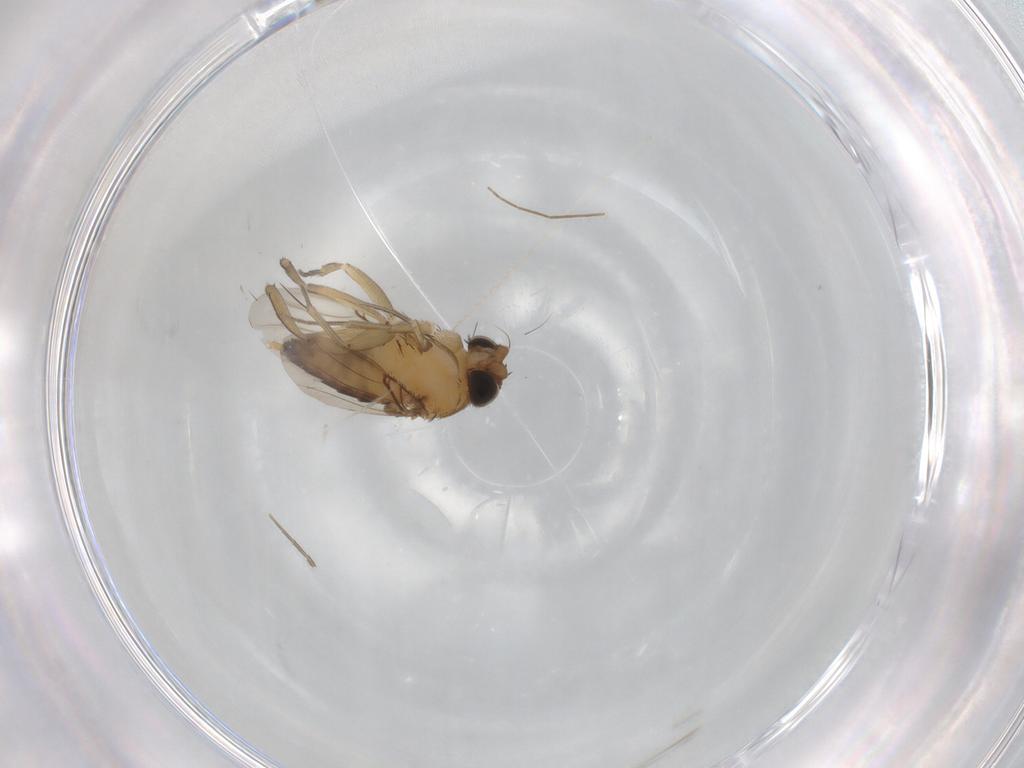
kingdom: Animalia
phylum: Arthropoda
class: Insecta
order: Diptera
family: Phoridae
